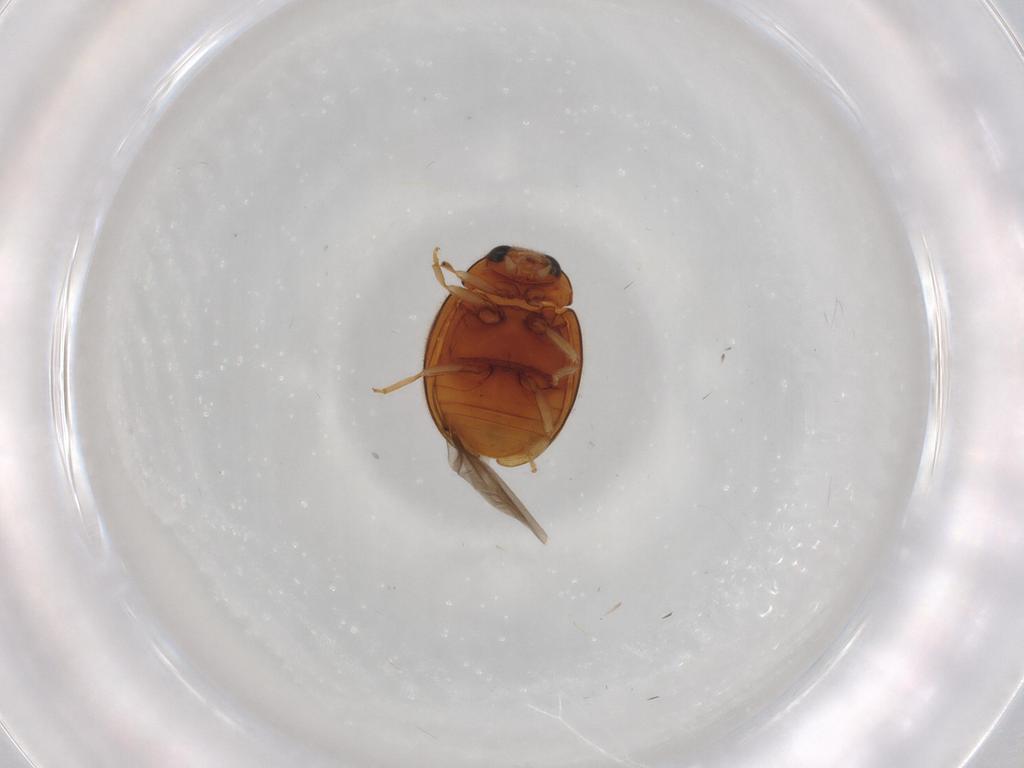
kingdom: Animalia
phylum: Arthropoda
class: Insecta
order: Coleoptera
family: Coccinellidae
